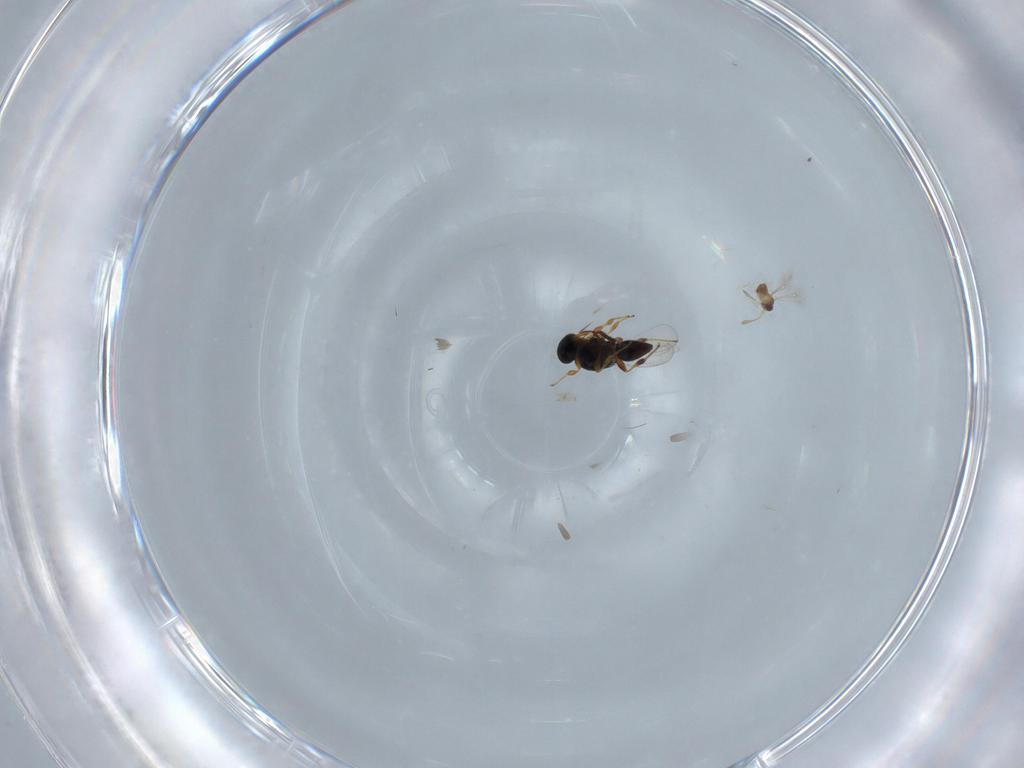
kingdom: Animalia
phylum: Arthropoda
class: Insecta
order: Hymenoptera
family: Platygastridae
